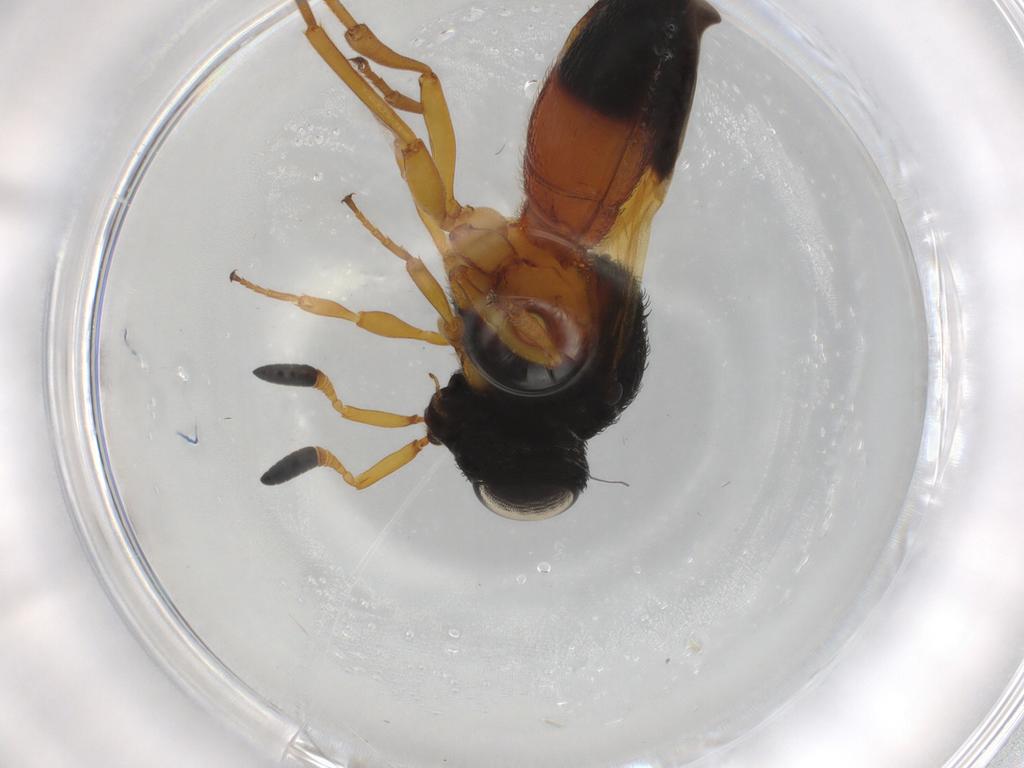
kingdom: Animalia
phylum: Arthropoda
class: Insecta
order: Hymenoptera
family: Scelionidae
